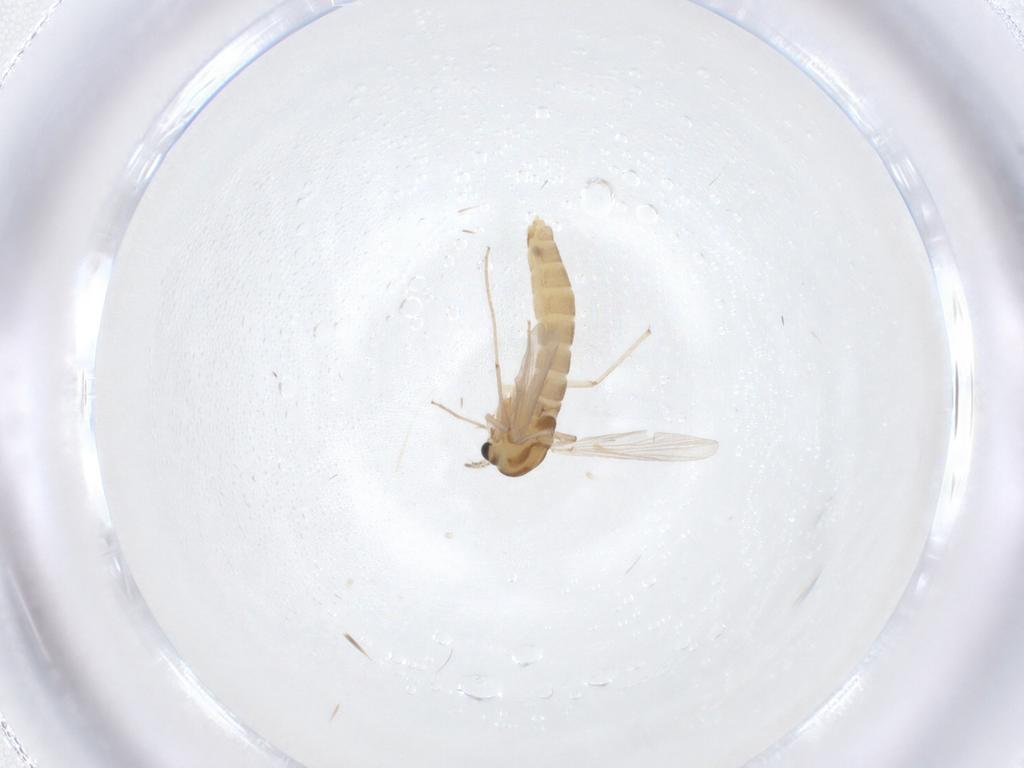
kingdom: Animalia
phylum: Arthropoda
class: Insecta
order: Diptera
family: Chironomidae
